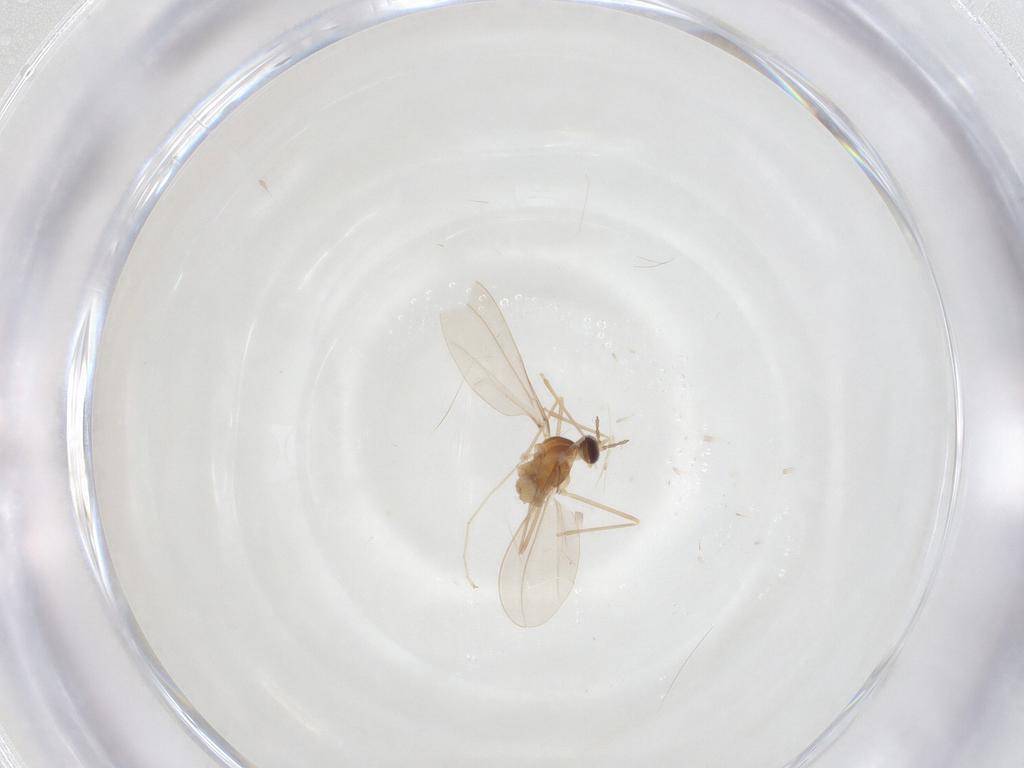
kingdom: Animalia
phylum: Arthropoda
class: Insecta
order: Diptera
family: Cecidomyiidae
